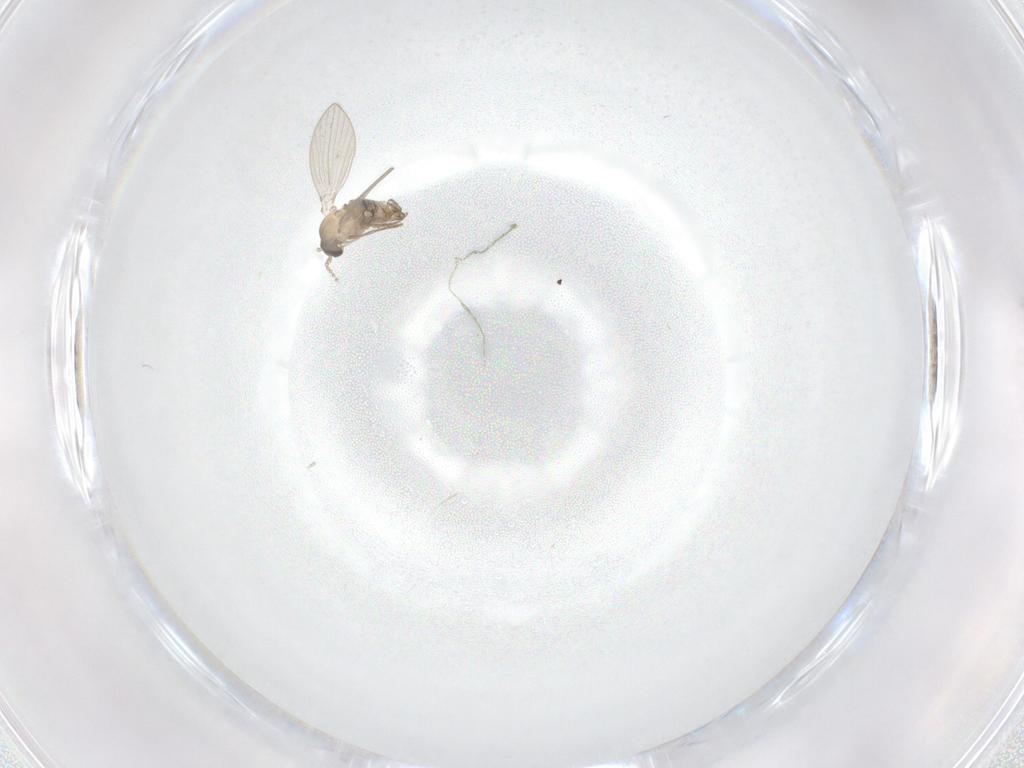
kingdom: Animalia
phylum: Arthropoda
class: Insecta
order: Diptera
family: Psychodidae
